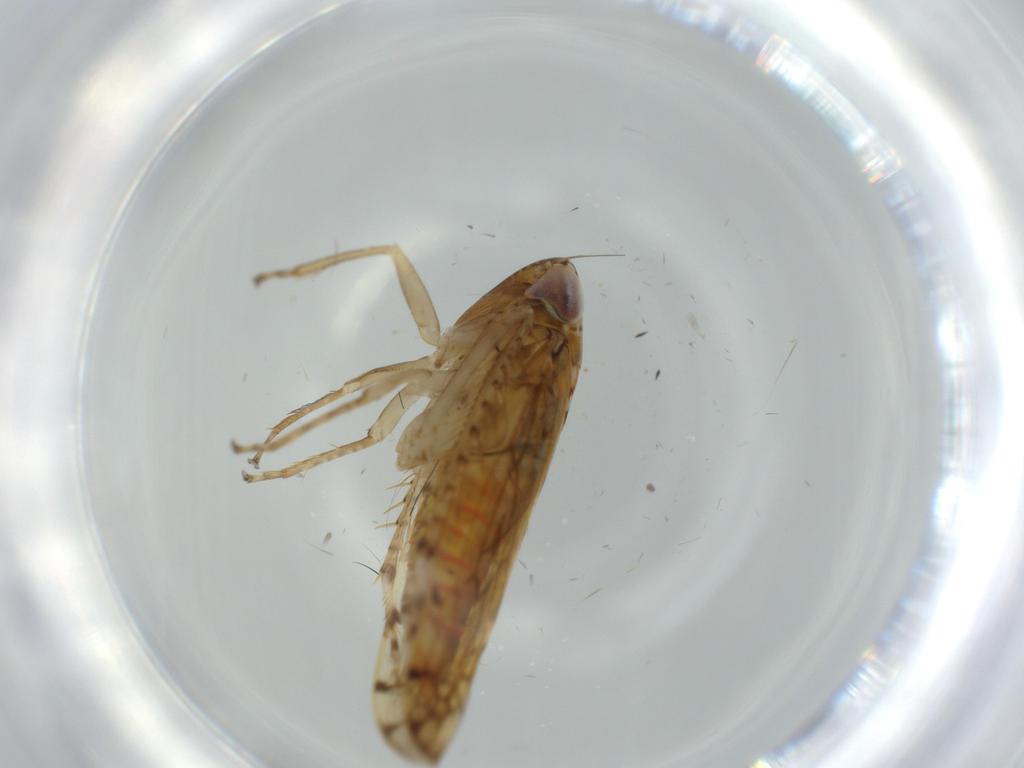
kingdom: Animalia
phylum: Arthropoda
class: Insecta
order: Hemiptera
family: Cicadellidae
